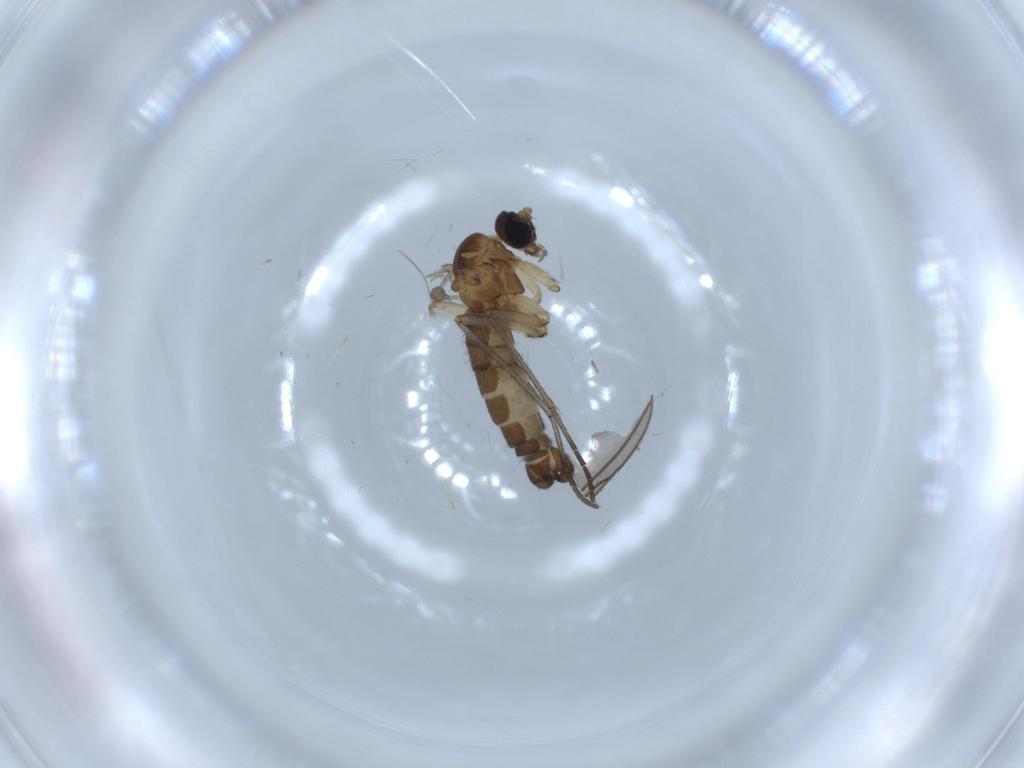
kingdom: Animalia
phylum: Arthropoda
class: Insecta
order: Diptera
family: Sciaridae
